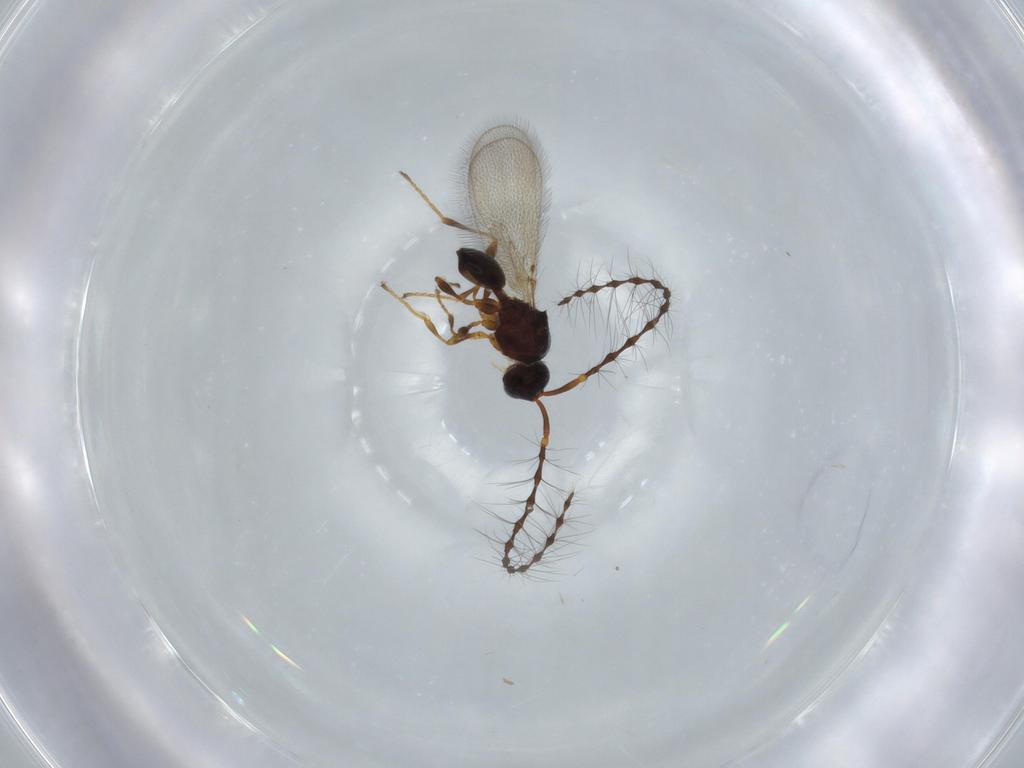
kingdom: Animalia
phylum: Arthropoda
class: Insecta
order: Hymenoptera
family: Diapriidae
